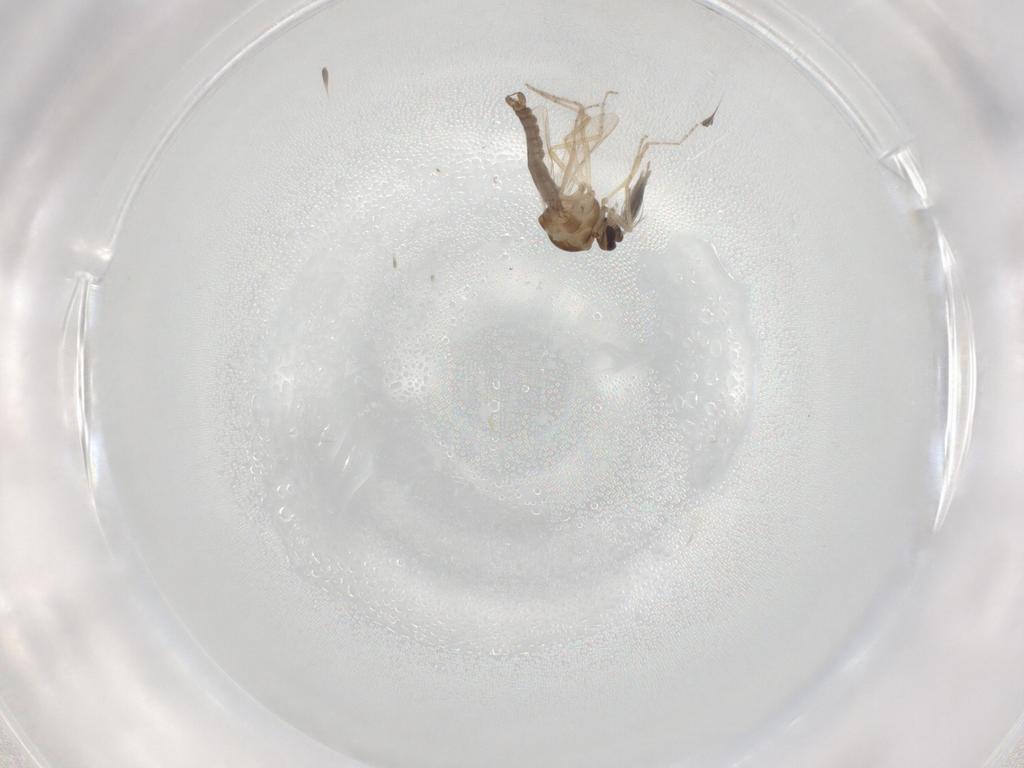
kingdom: Animalia
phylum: Arthropoda
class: Insecta
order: Diptera
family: Ceratopogonidae
